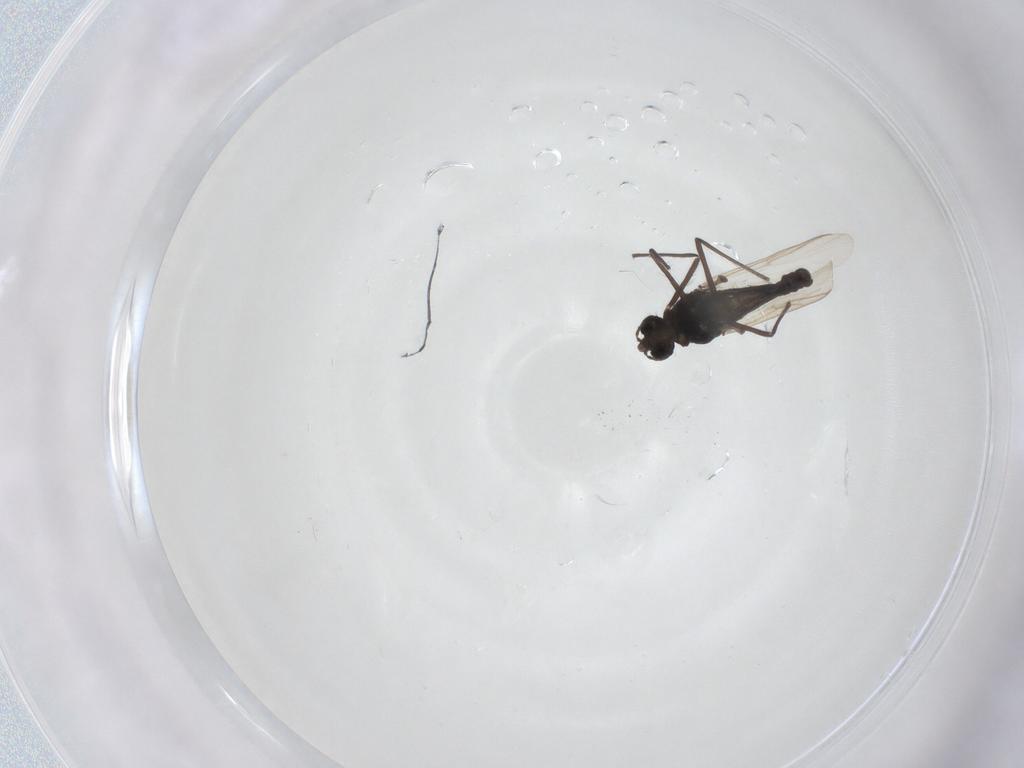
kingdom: Animalia
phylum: Arthropoda
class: Insecta
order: Diptera
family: Chironomidae
